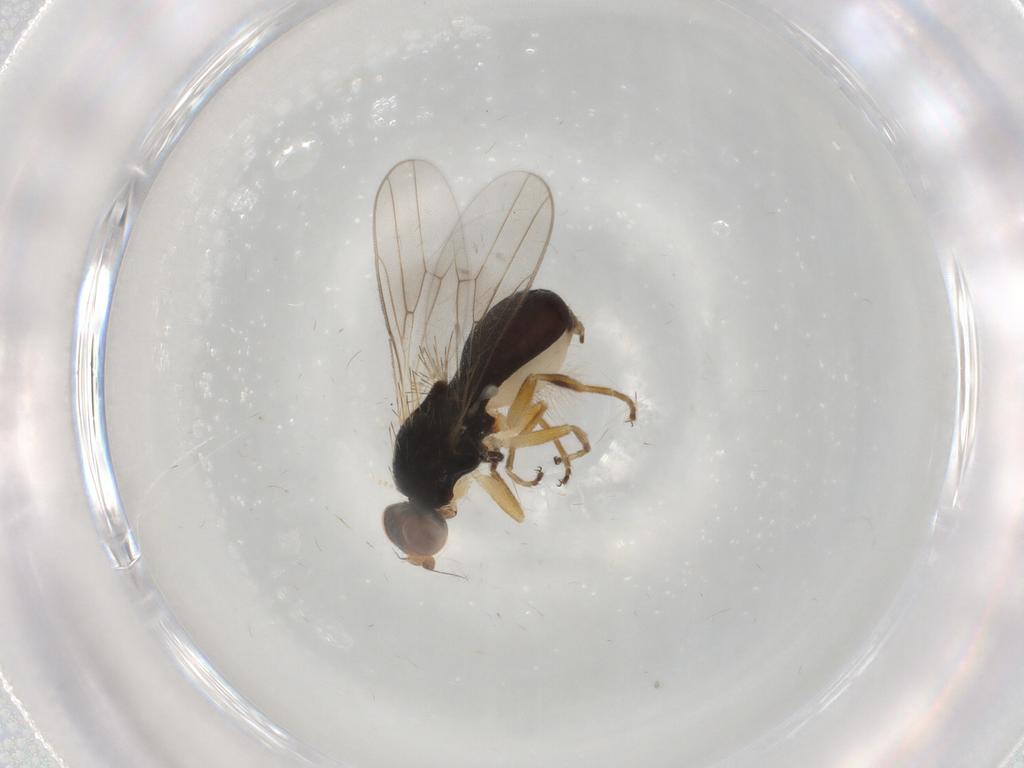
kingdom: Animalia
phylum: Arthropoda
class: Insecta
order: Diptera
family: Chloropidae
